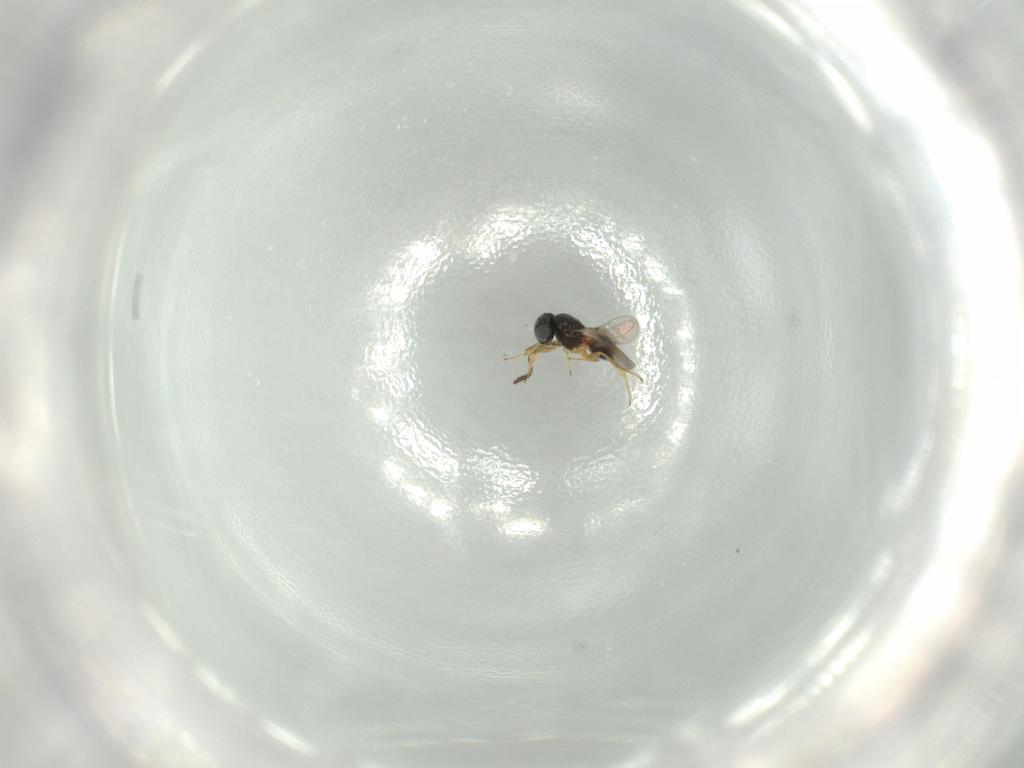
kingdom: Animalia
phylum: Arthropoda
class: Insecta
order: Hymenoptera
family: Scelionidae
